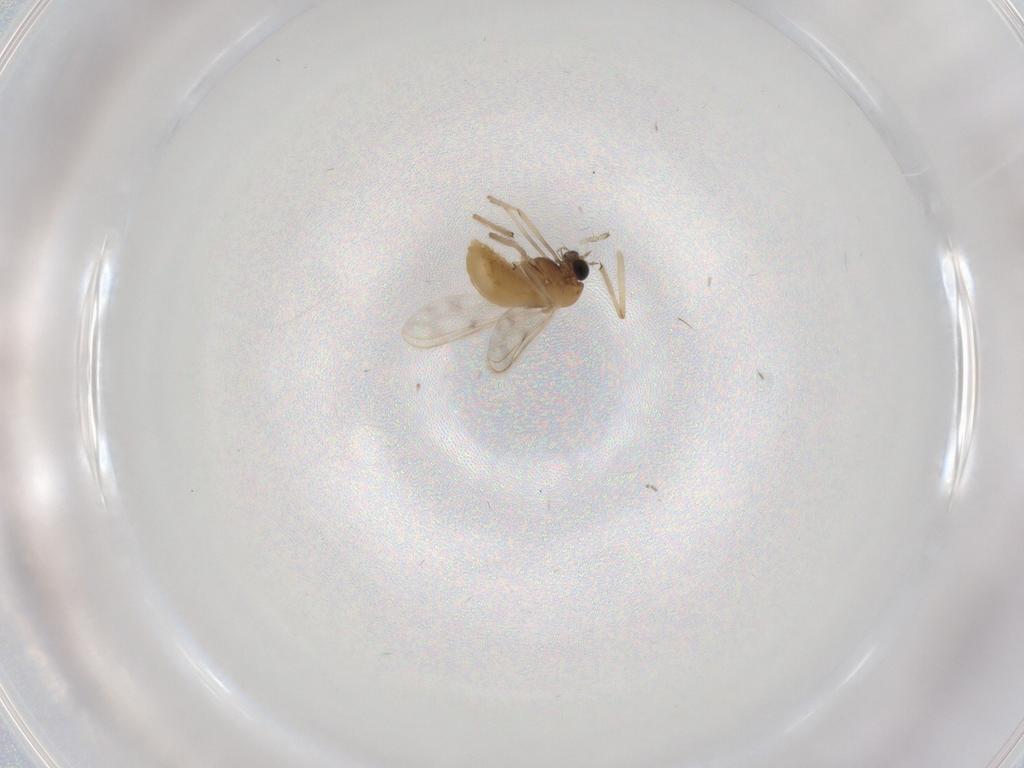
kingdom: Animalia
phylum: Arthropoda
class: Insecta
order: Diptera
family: Chironomidae
